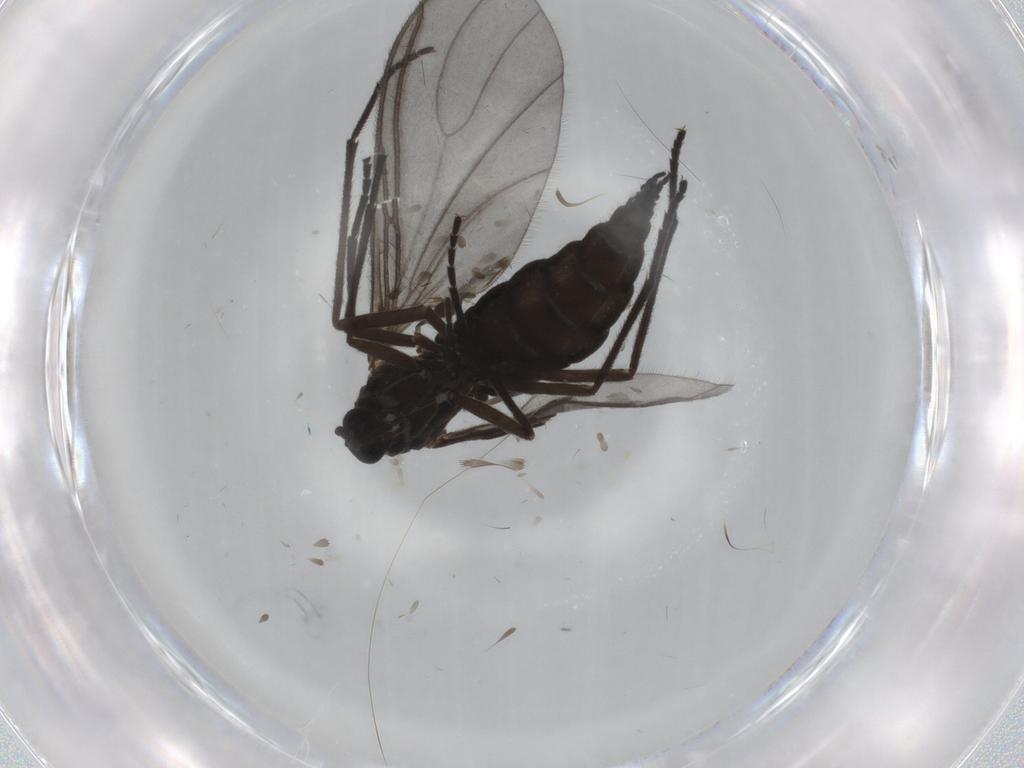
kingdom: Animalia
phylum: Arthropoda
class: Insecta
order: Diptera
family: Sciaridae
